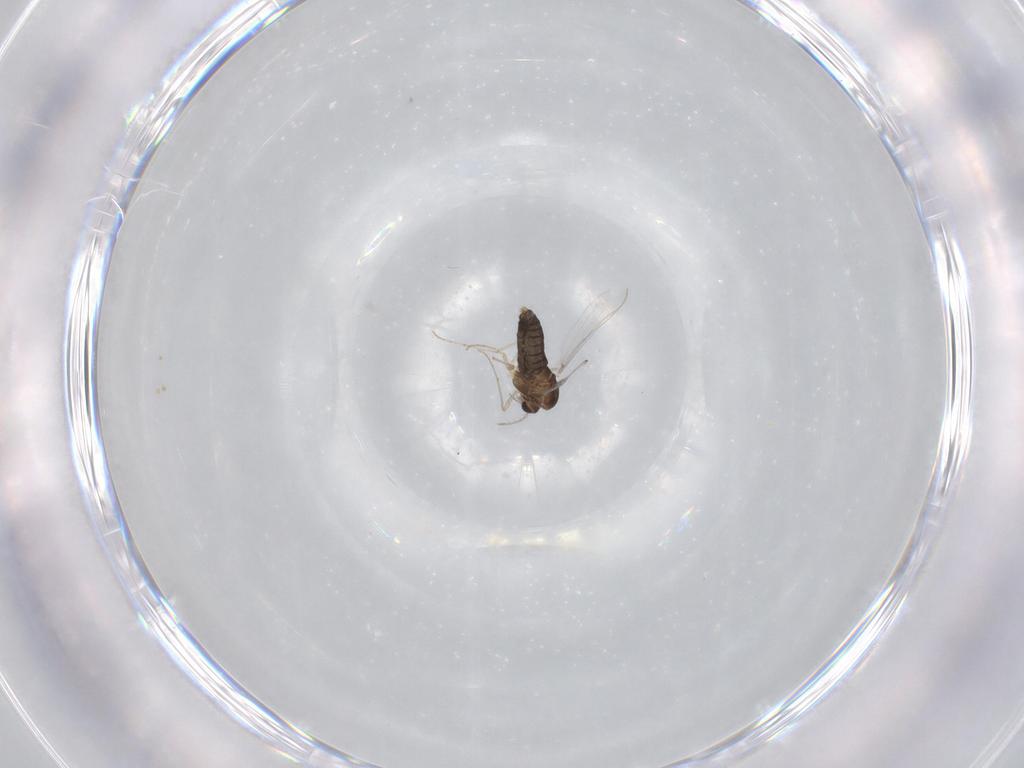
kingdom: Animalia
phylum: Arthropoda
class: Insecta
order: Diptera
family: Chironomidae
